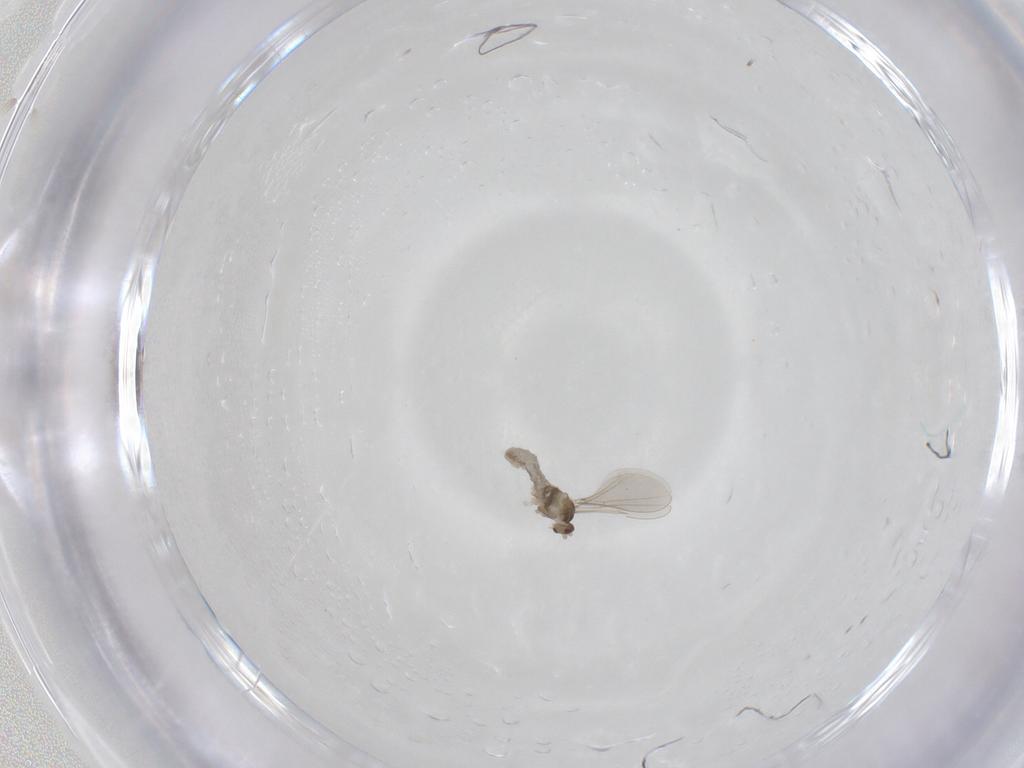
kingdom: Animalia
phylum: Arthropoda
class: Insecta
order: Diptera
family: Cecidomyiidae
